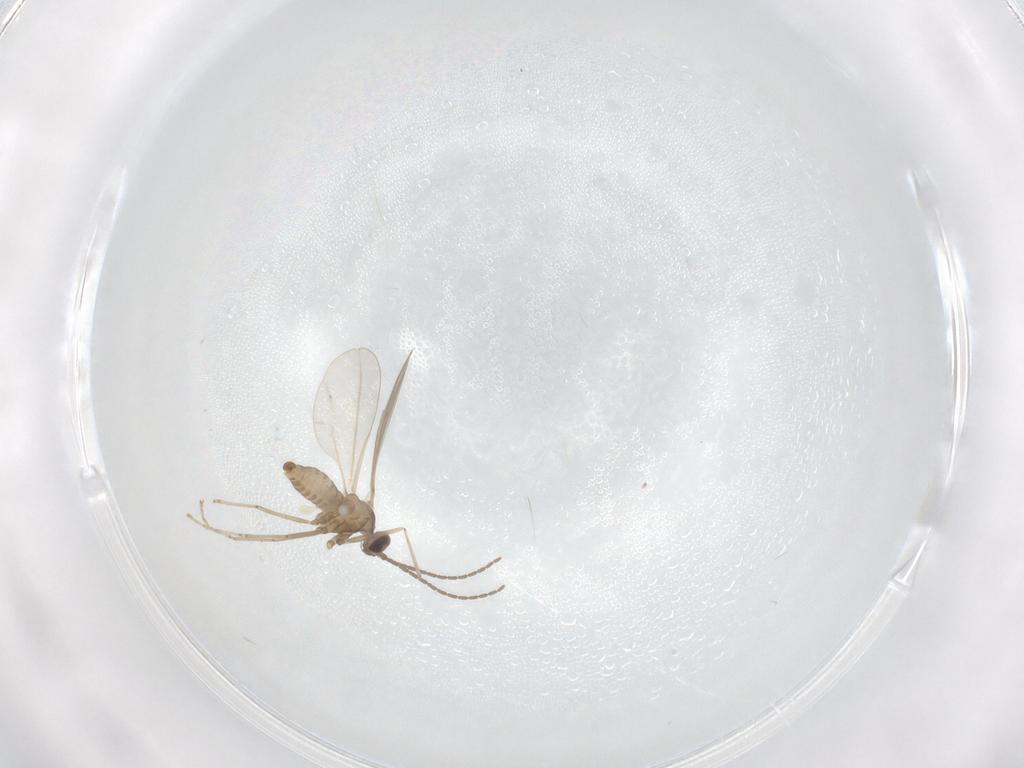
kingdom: Animalia
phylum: Arthropoda
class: Insecta
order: Diptera
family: Cecidomyiidae
